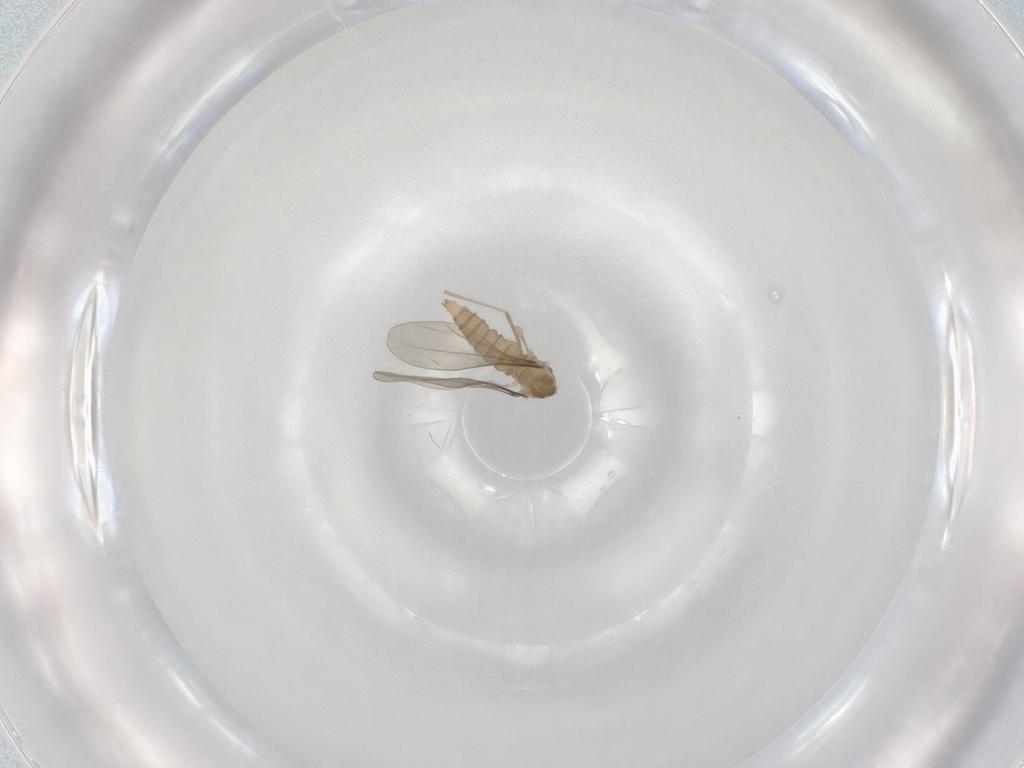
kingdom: Animalia
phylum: Arthropoda
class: Insecta
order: Diptera
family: Cecidomyiidae
